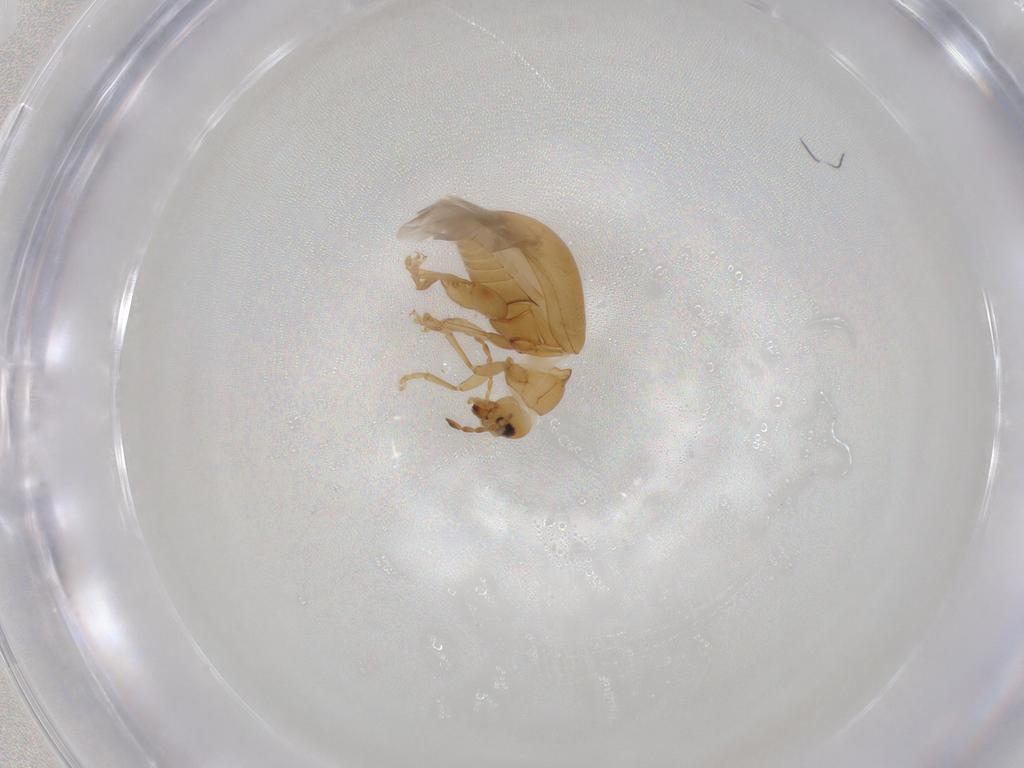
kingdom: Animalia
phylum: Arthropoda
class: Insecta
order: Coleoptera
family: Chrysomelidae
